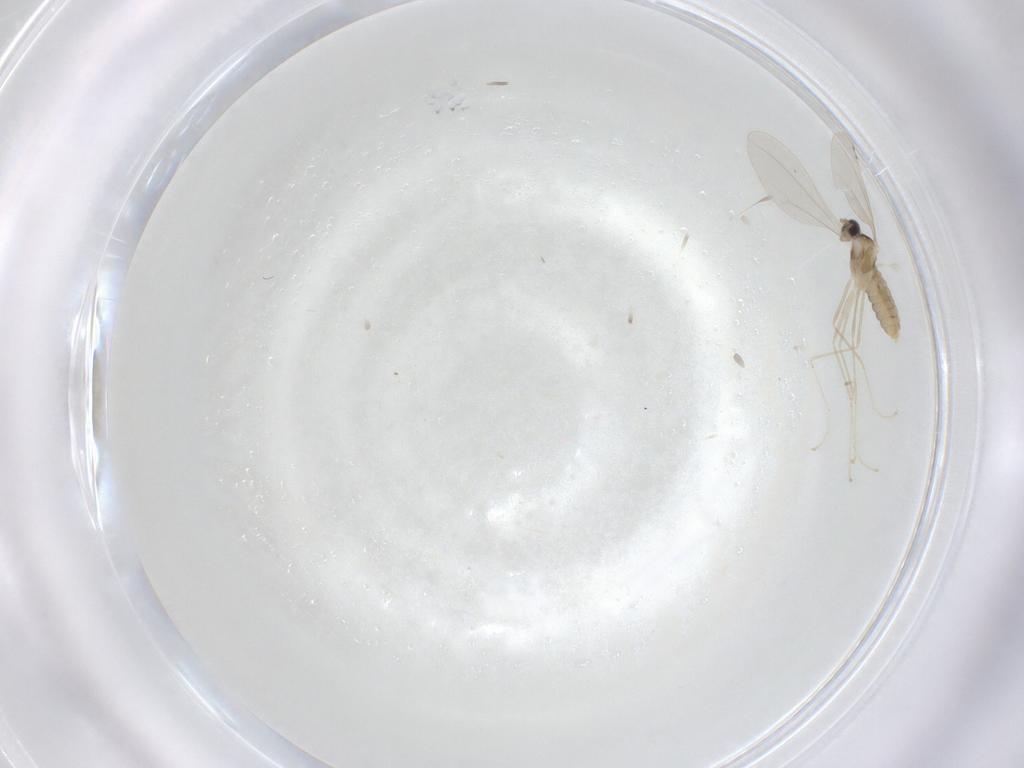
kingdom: Animalia
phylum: Arthropoda
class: Insecta
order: Diptera
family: Cecidomyiidae
